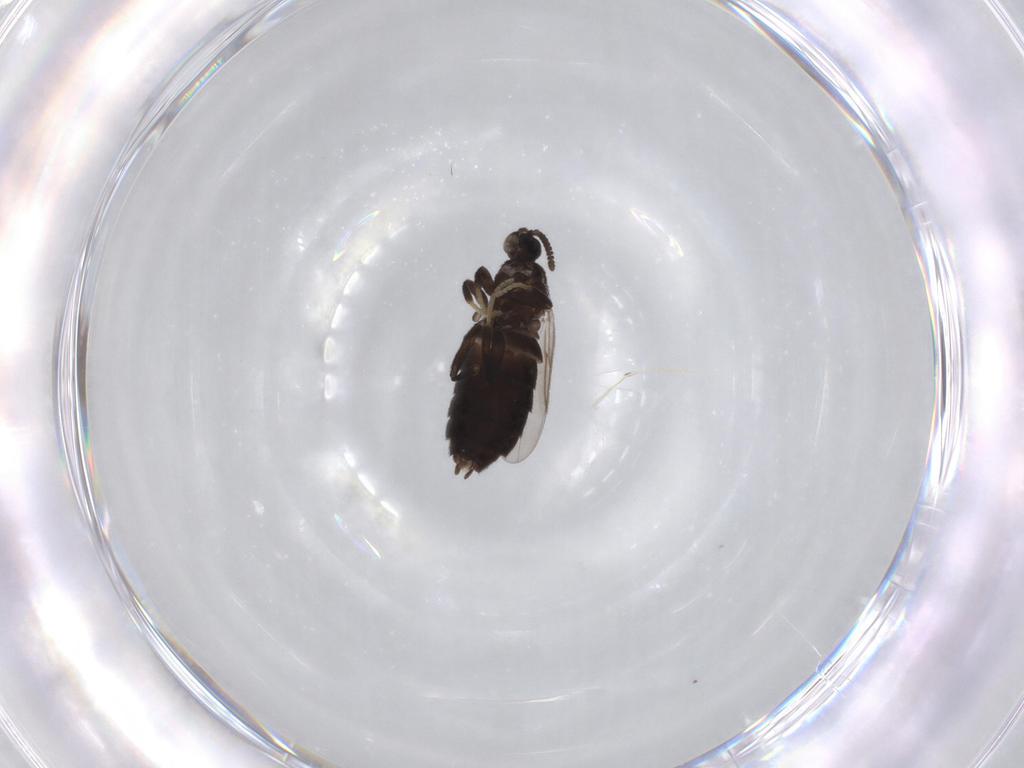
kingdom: Animalia
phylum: Arthropoda
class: Insecta
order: Diptera
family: Scatopsidae
